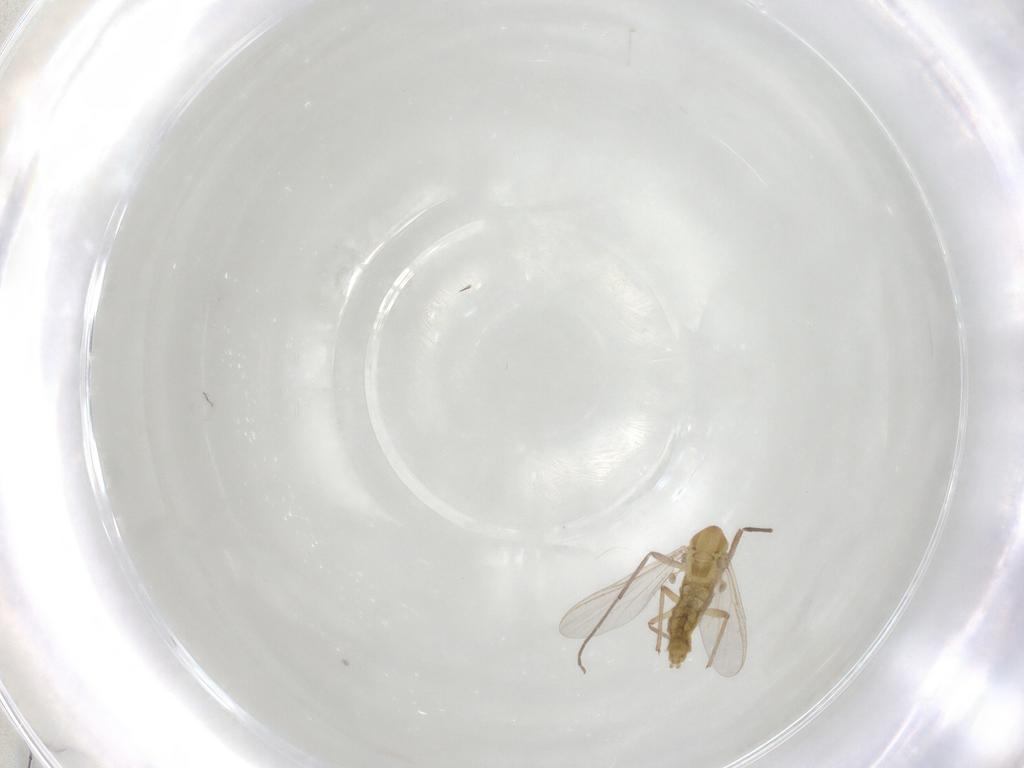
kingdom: Animalia
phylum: Arthropoda
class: Insecta
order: Diptera
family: Chironomidae
